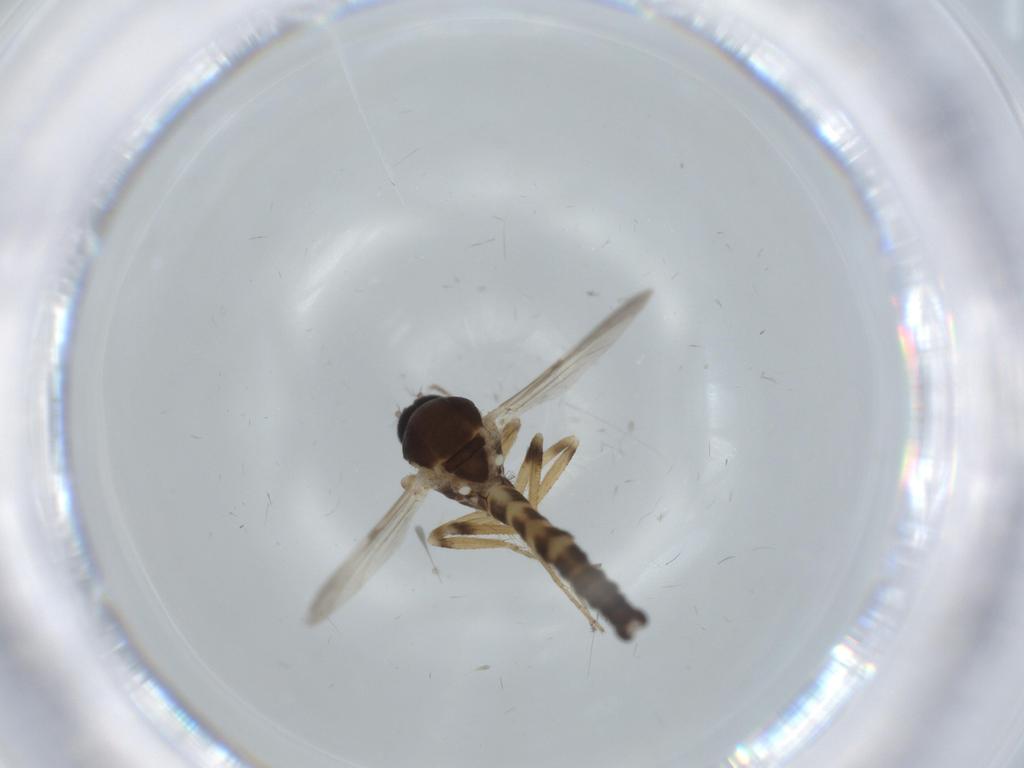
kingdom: Animalia
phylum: Arthropoda
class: Insecta
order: Diptera
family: Ceratopogonidae
